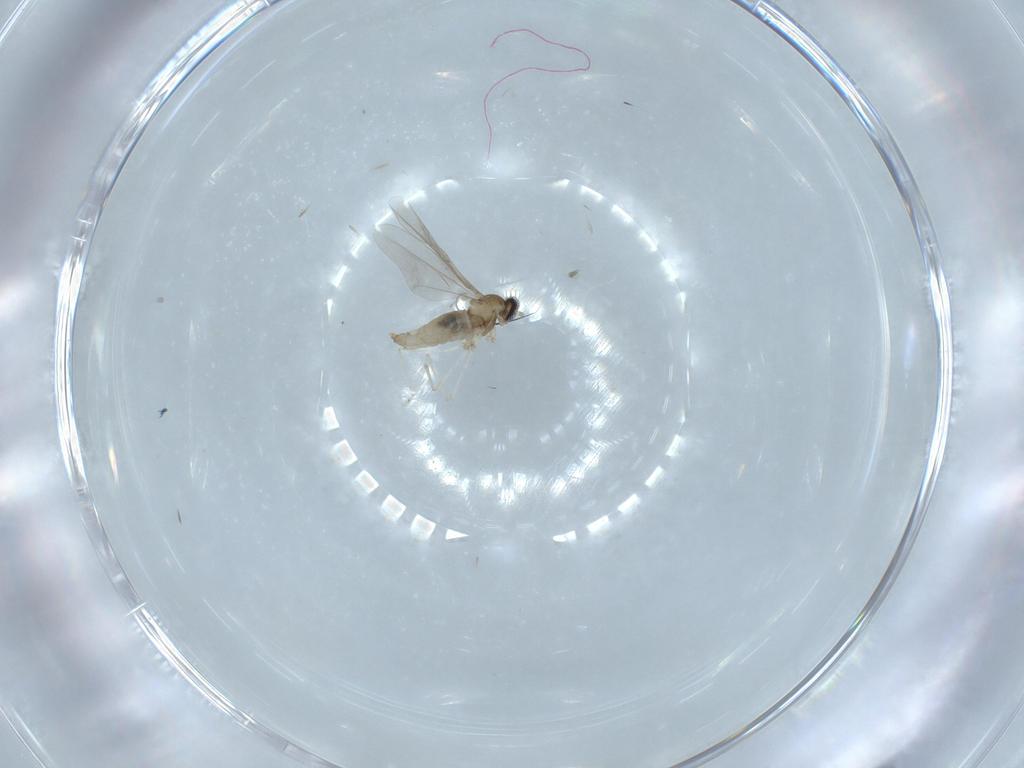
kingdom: Animalia
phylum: Arthropoda
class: Insecta
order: Diptera
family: Cecidomyiidae
